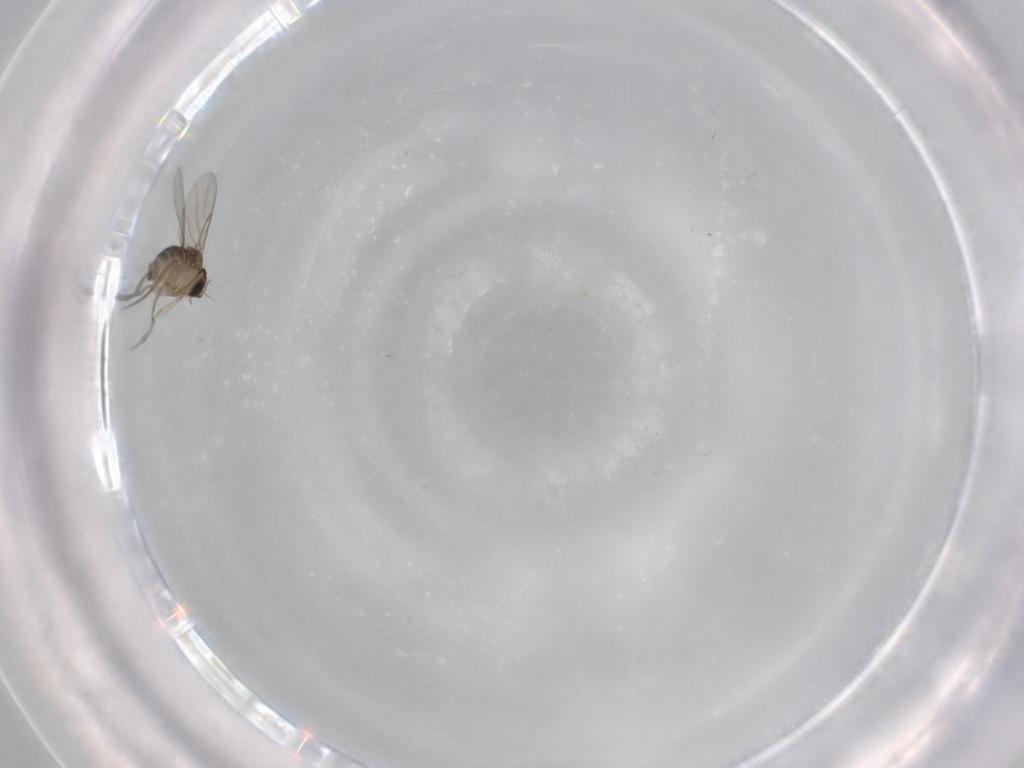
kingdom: Animalia
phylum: Arthropoda
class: Insecta
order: Diptera
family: Phoridae
